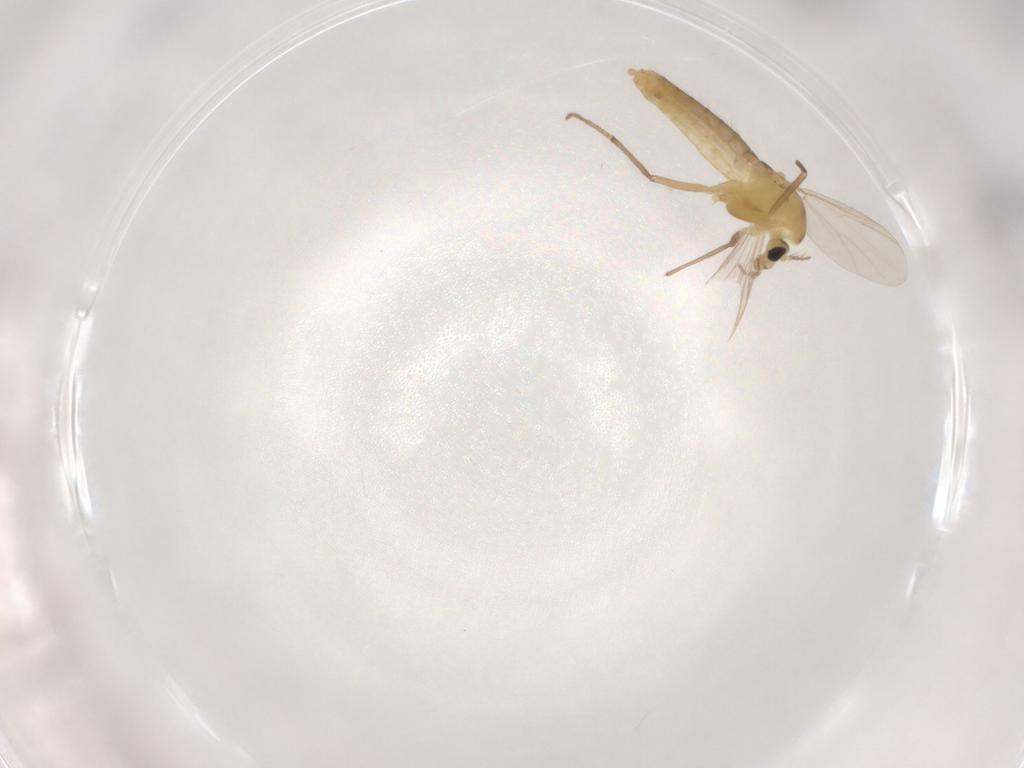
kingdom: Animalia
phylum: Arthropoda
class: Insecta
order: Diptera
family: Chironomidae
